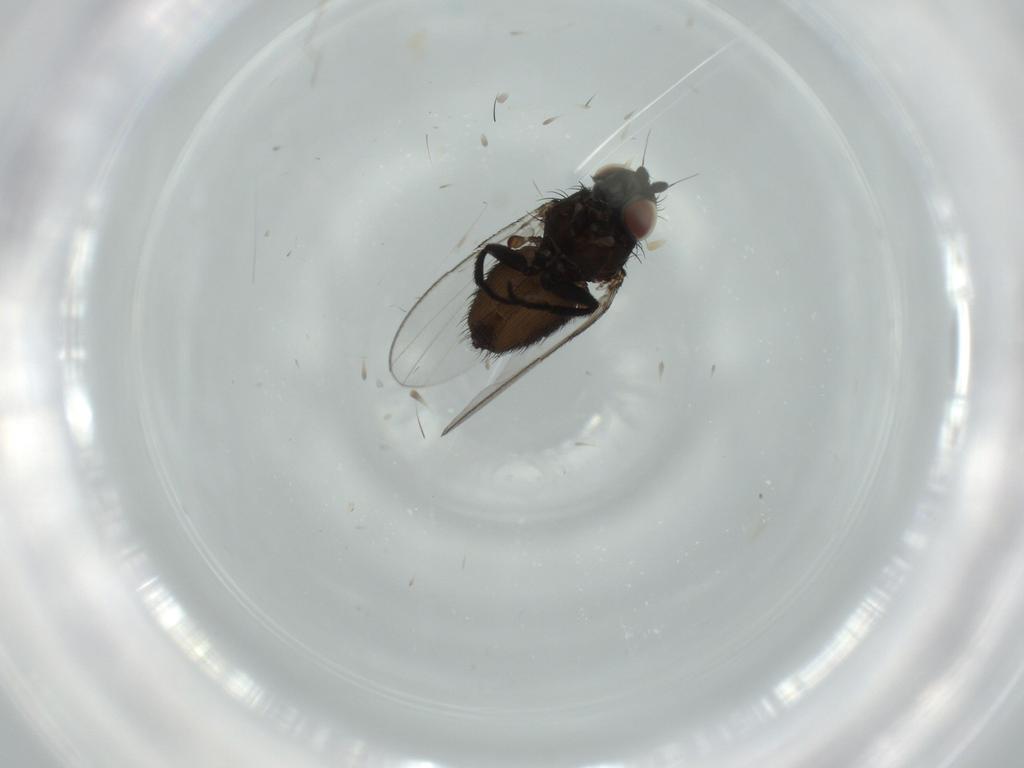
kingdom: Animalia
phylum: Arthropoda
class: Insecta
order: Diptera
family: Milichiidae
